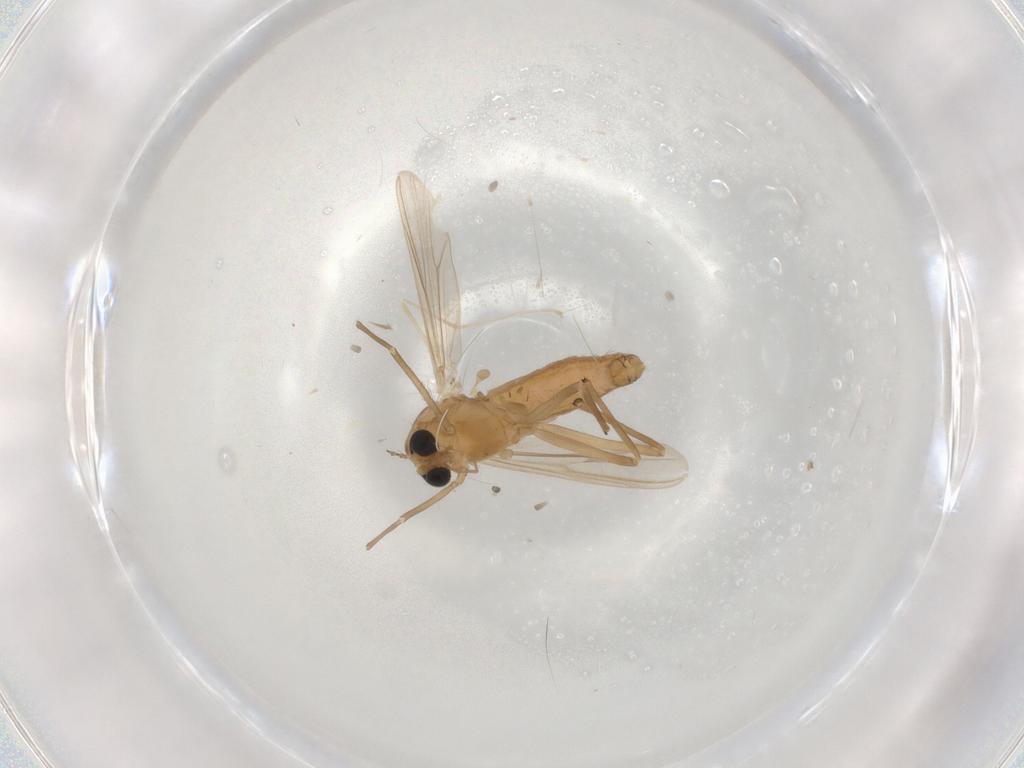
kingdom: Animalia
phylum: Arthropoda
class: Insecta
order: Diptera
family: Chironomidae
